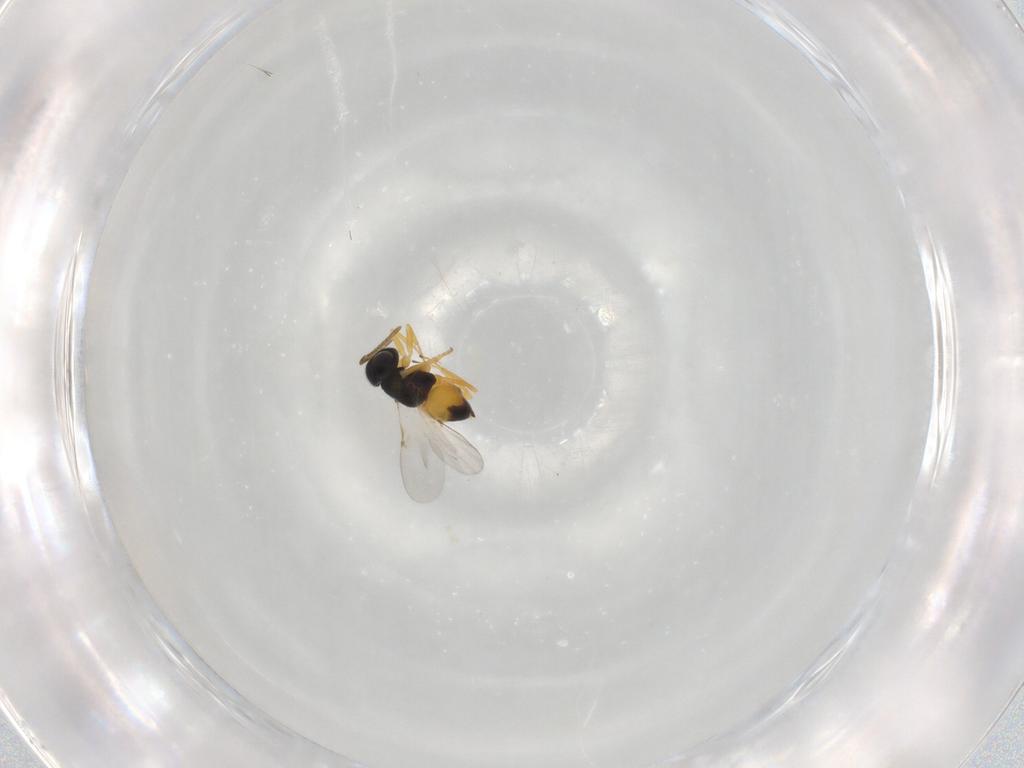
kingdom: Animalia
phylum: Arthropoda
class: Insecta
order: Hymenoptera
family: Encyrtidae
